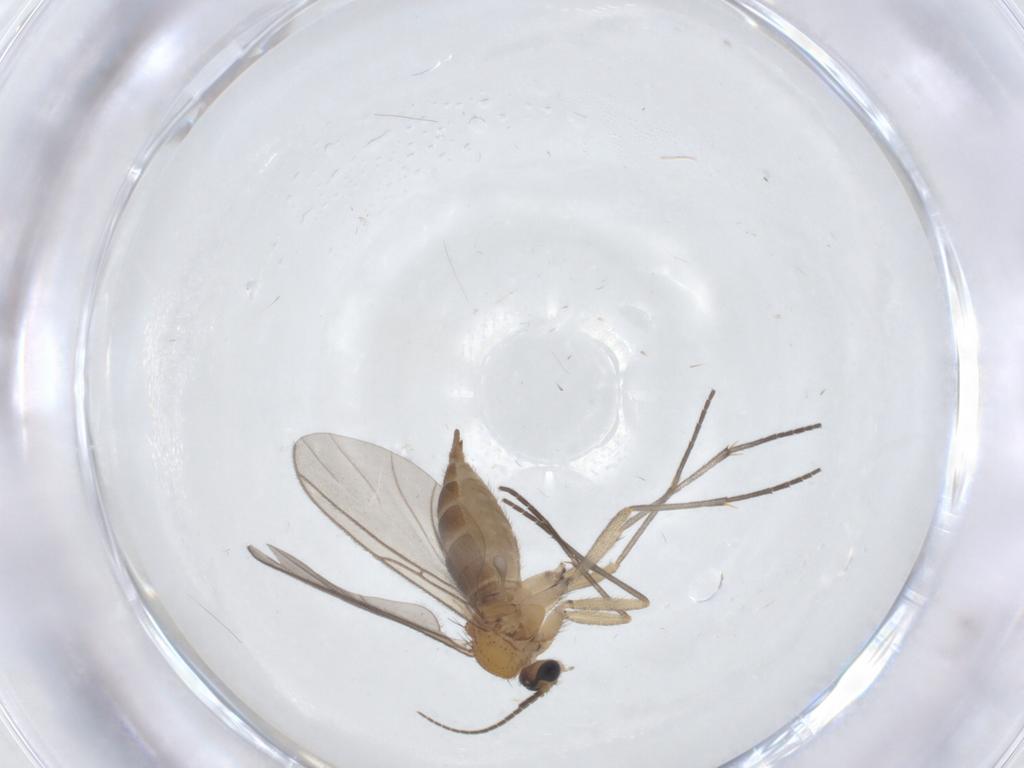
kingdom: Animalia
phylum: Arthropoda
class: Insecta
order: Diptera
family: Sciaridae
